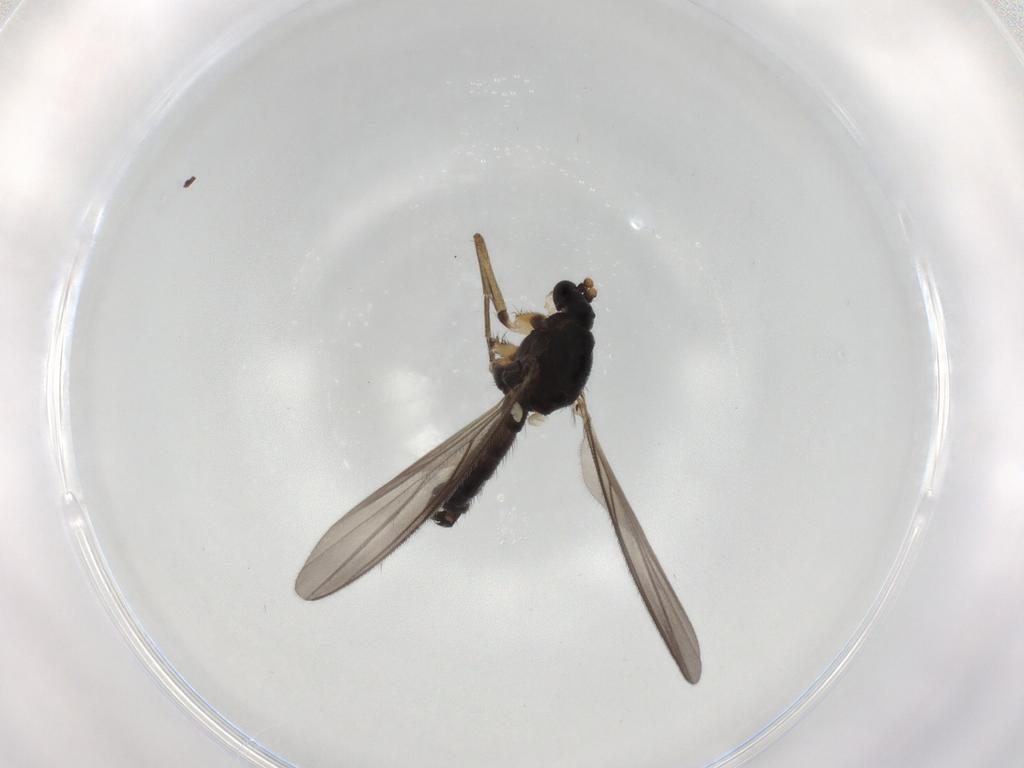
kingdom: Animalia
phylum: Arthropoda
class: Insecta
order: Diptera
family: Mycetophilidae
